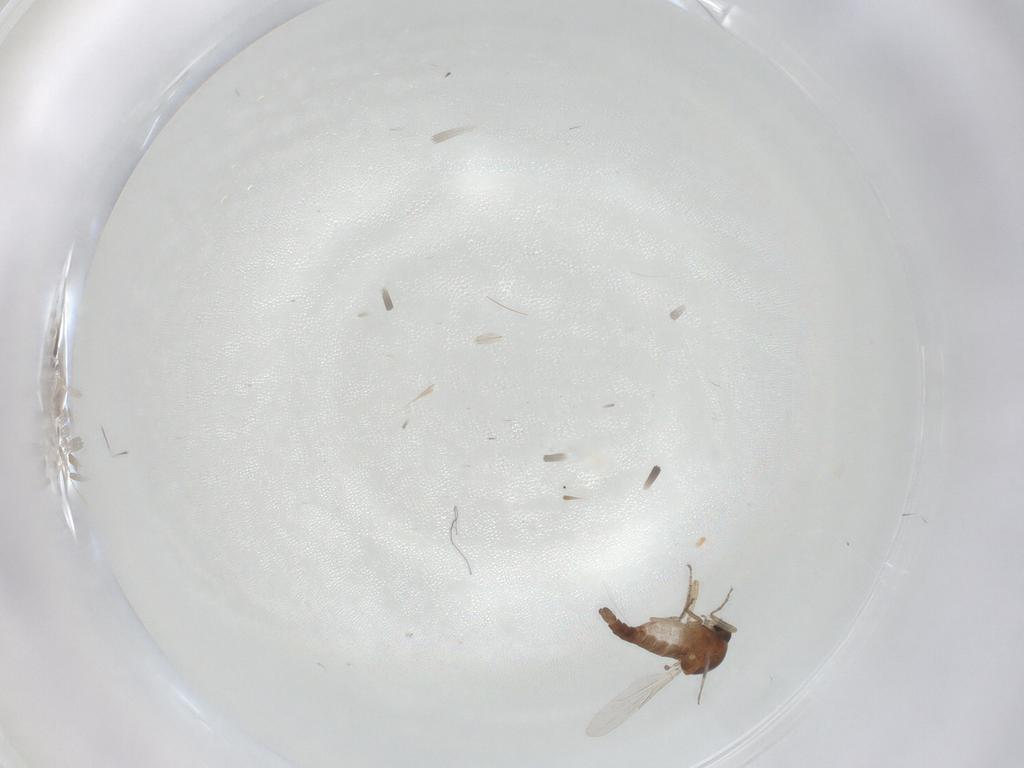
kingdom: Animalia
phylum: Arthropoda
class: Insecta
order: Diptera
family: Ceratopogonidae
